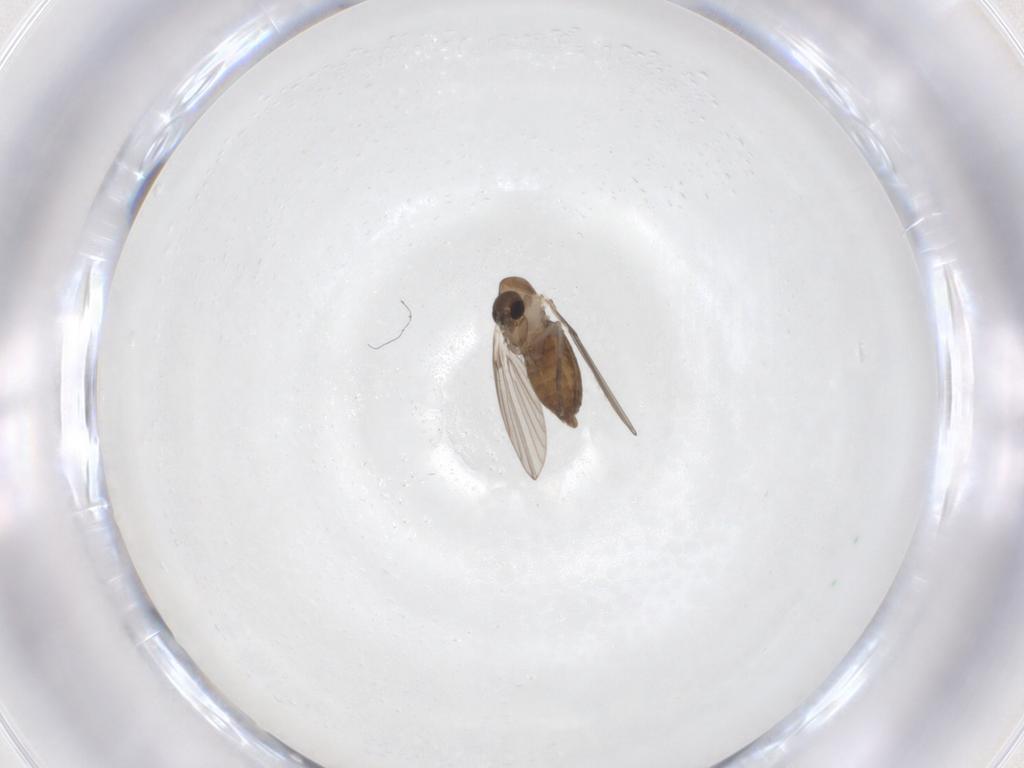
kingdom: Animalia
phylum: Arthropoda
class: Insecta
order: Diptera
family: Psychodidae
